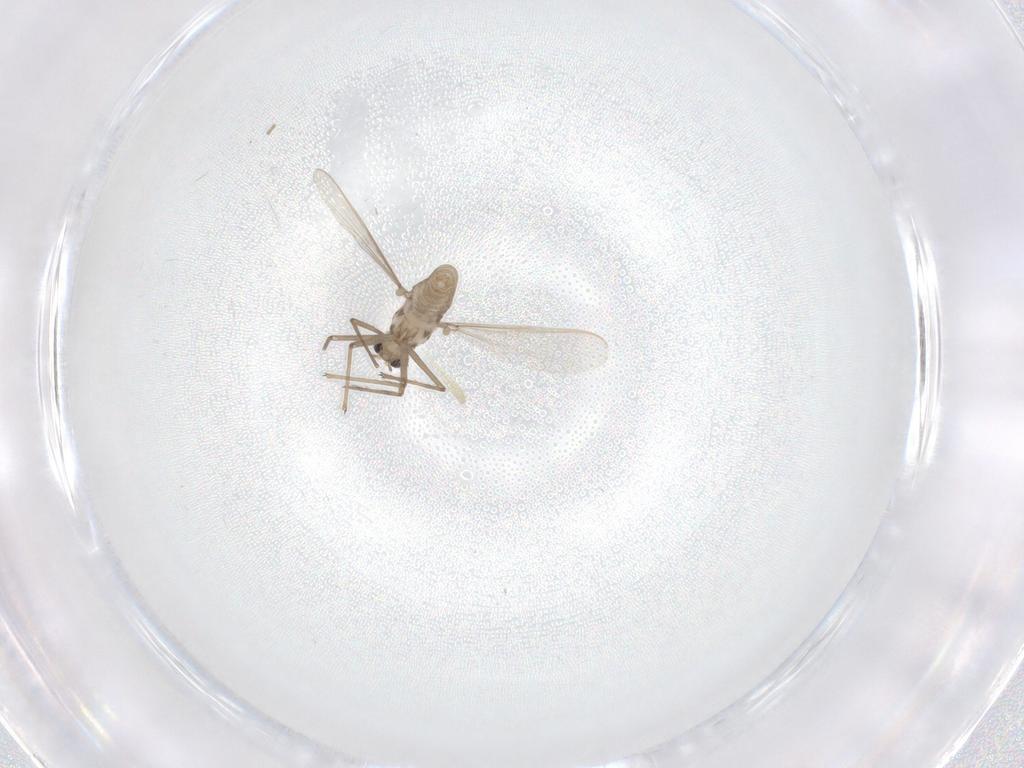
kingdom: Animalia
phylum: Arthropoda
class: Insecta
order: Diptera
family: Chironomidae
